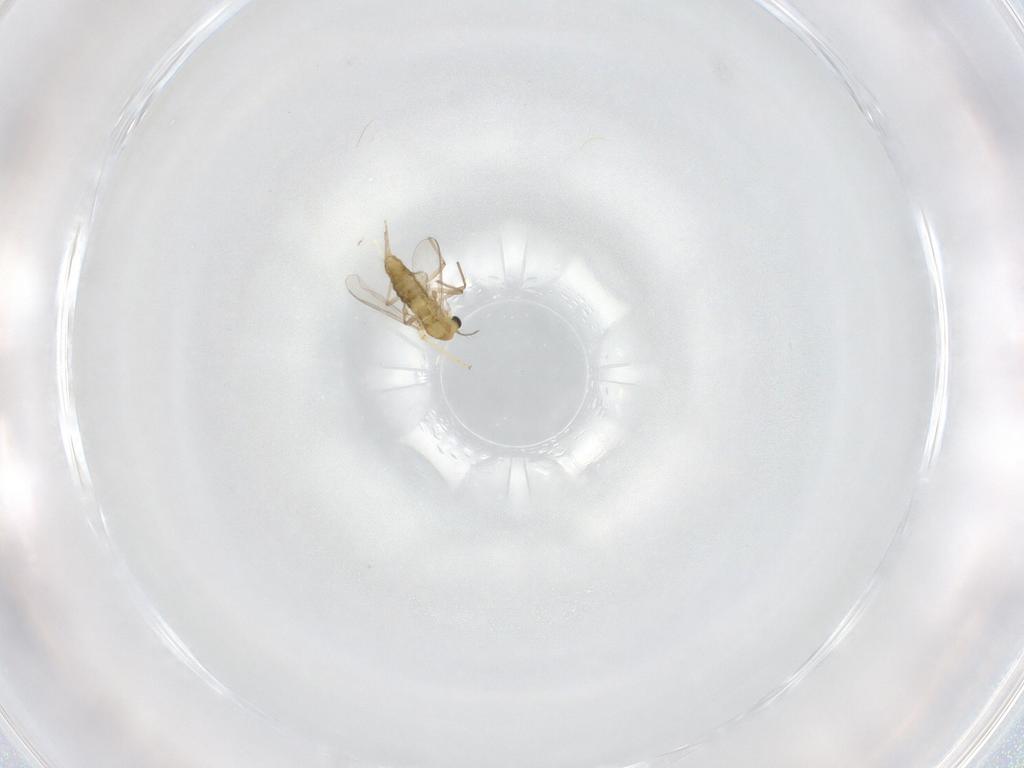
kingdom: Animalia
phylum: Arthropoda
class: Insecta
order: Diptera
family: Chironomidae
